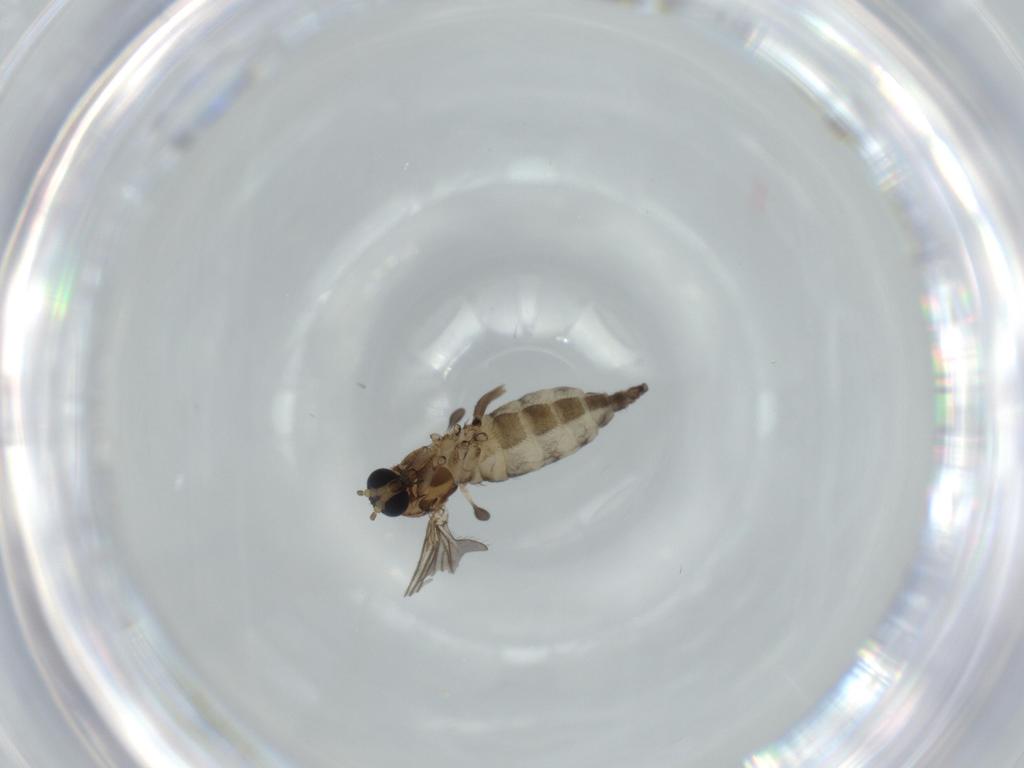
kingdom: Animalia
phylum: Arthropoda
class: Insecta
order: Diptera
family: Sciaridae
